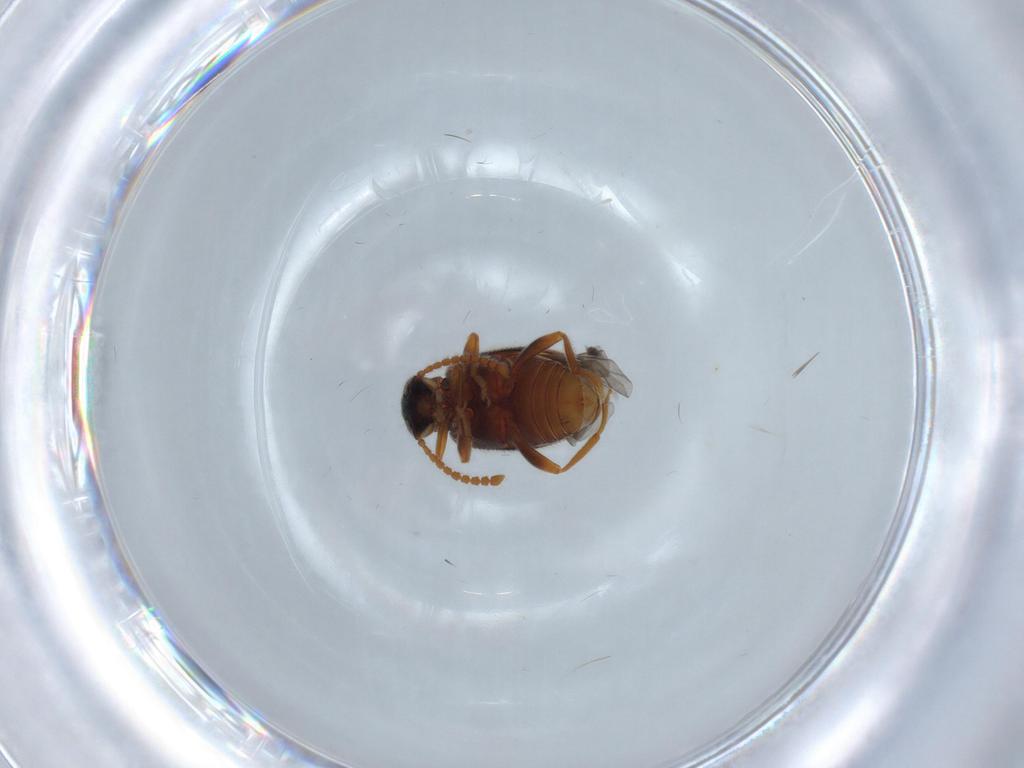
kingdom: Animalia
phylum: Arthropoda
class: Insecta
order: Coleoptera
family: Aderidae
